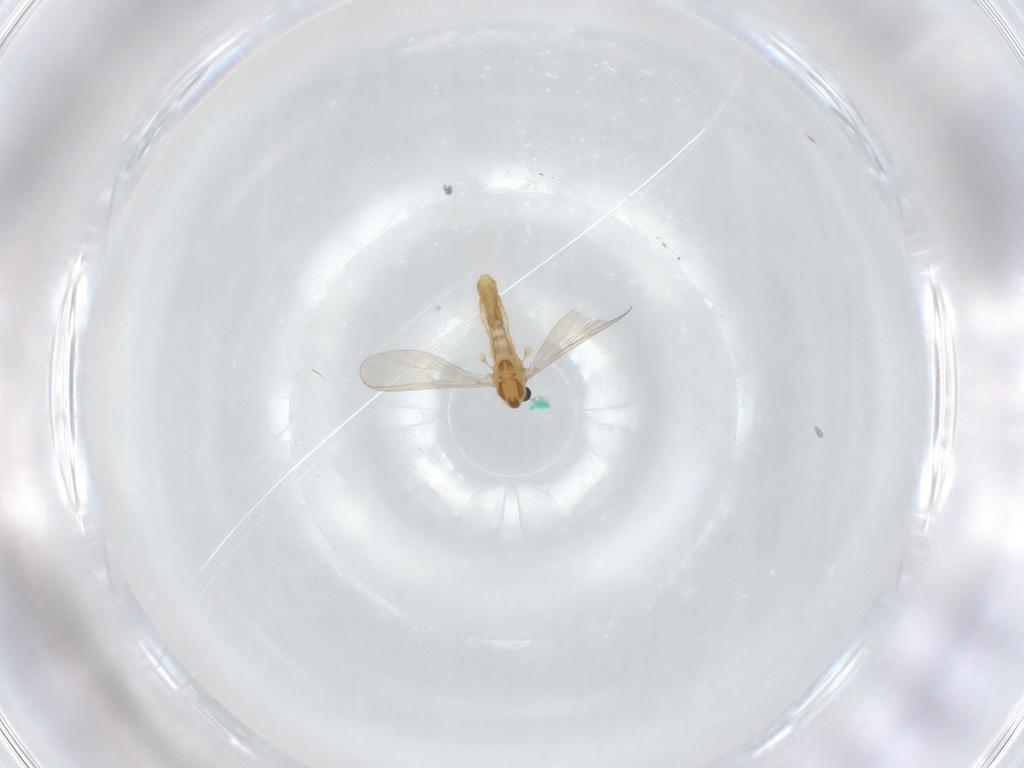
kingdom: Animalia
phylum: Arthropoda
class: Insecta
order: Diptera
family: Chironomidae
